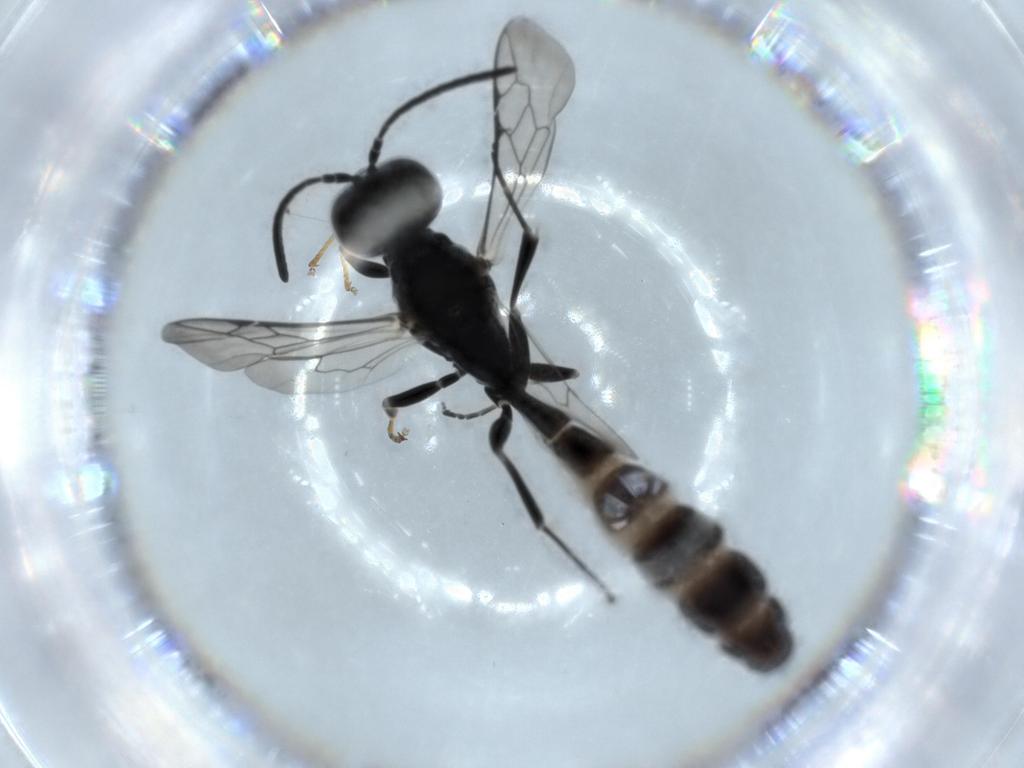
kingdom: Animalia
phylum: Arthropoda
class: Insecta
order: Hymenoptera
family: Crabronidae
